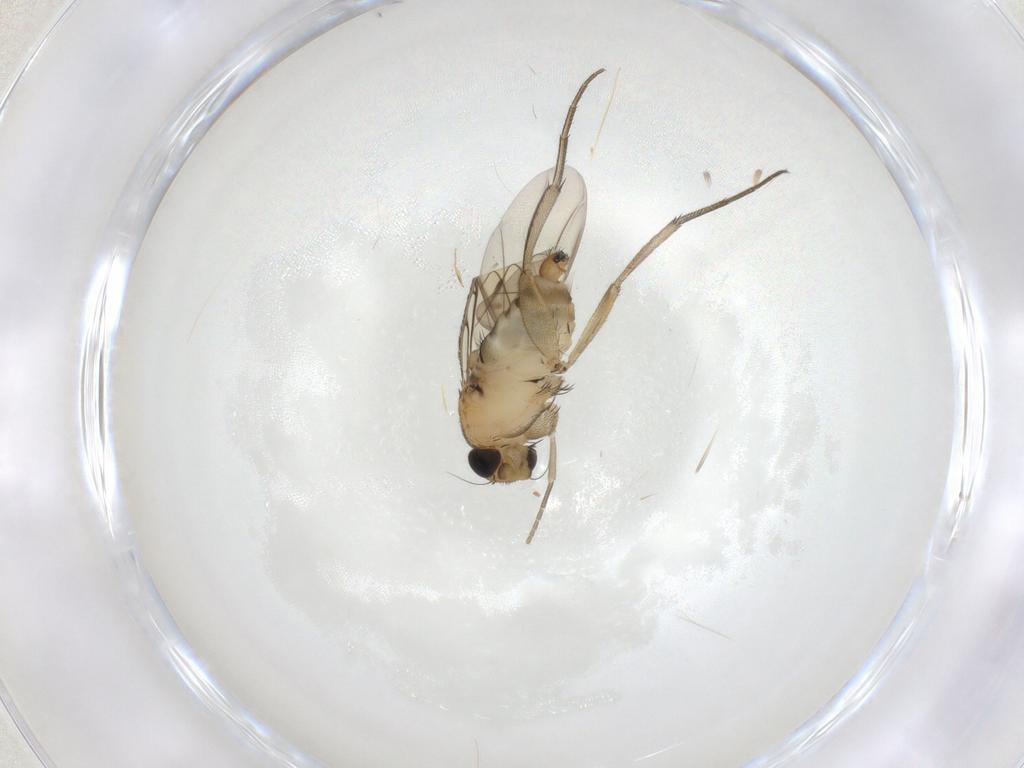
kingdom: Animalia
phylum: Arthropoda
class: Insecta
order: Diptera
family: Phoridae
